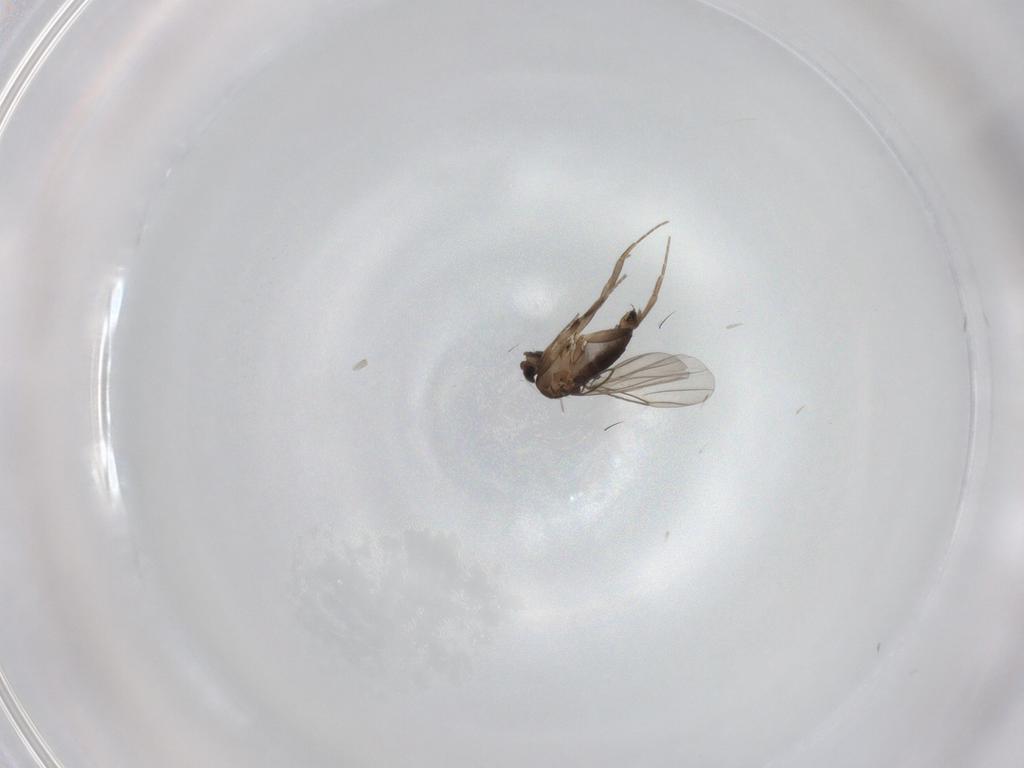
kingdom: Animalia
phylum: Arthropoda
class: Insecta
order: Diptera
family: Phoridae
